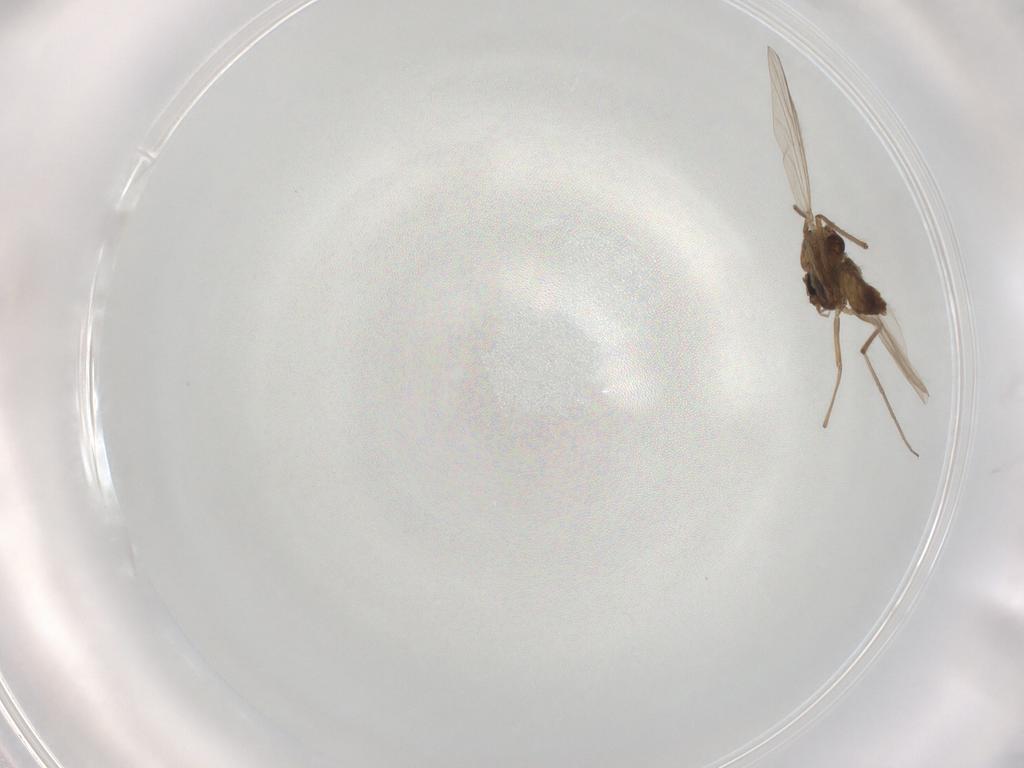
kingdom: Animalia
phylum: Arthropoda
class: Insecta
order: Diptera
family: Chironomidae
